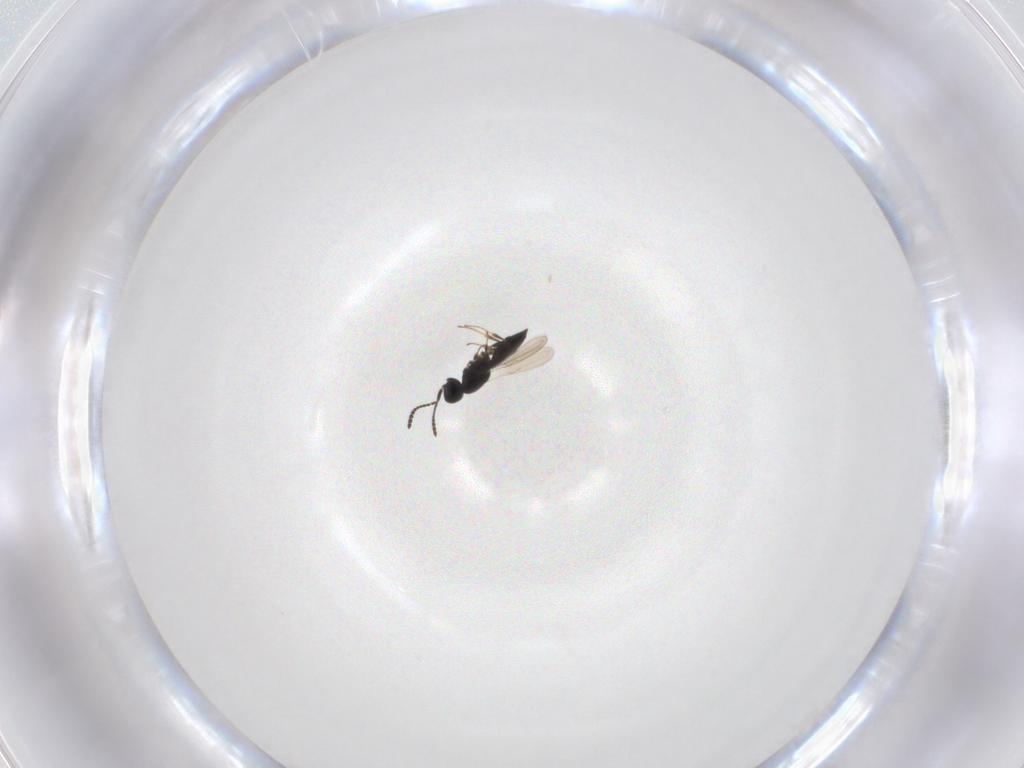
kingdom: Animalia
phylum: Arthropoda
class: Insecta
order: Hymenoptera
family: Scelionidae
